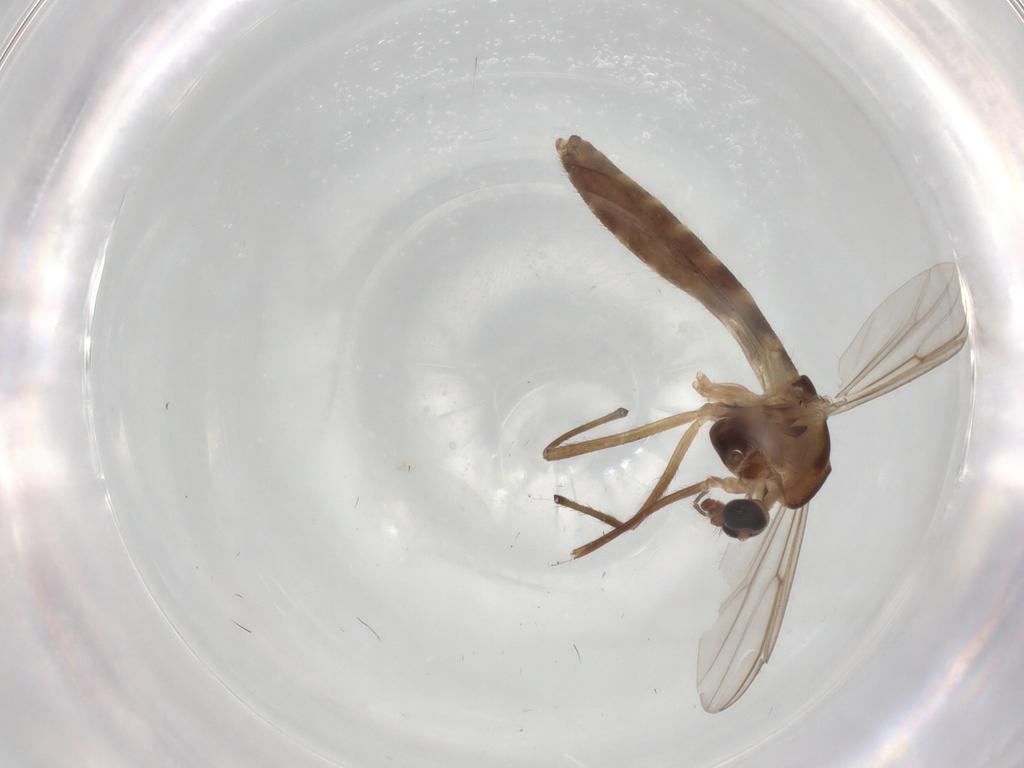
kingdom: Animalia
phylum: Arthropoda
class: Insecta
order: Diptera
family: Chironomidae
